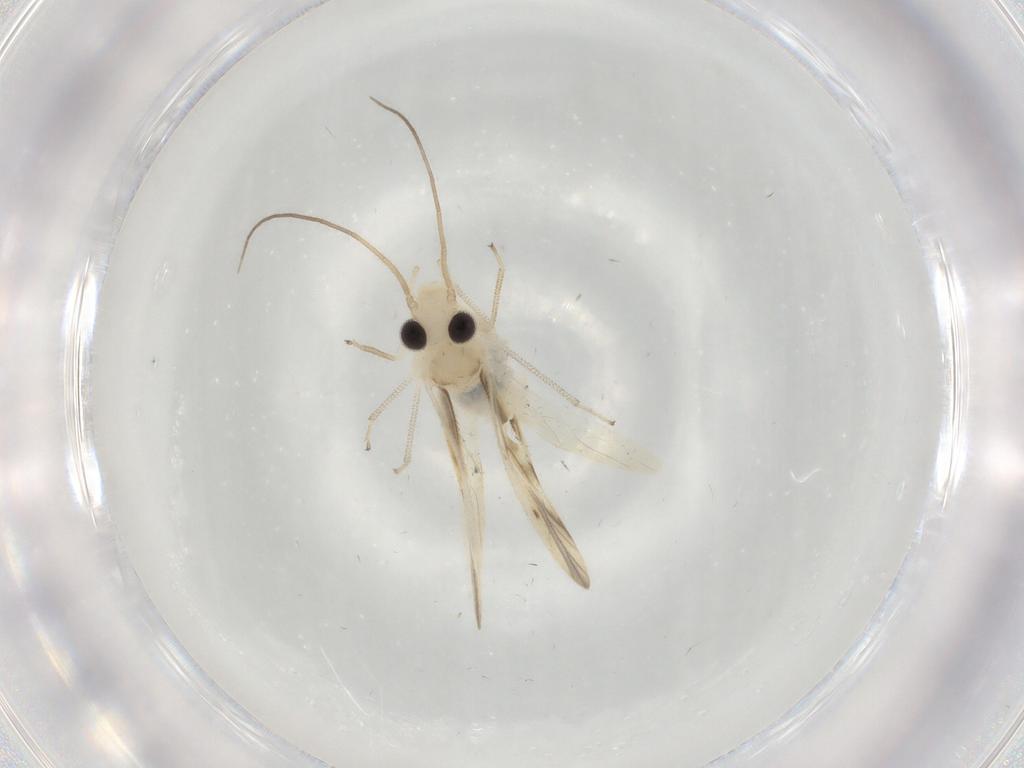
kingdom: Animalia
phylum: Arthropoda
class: Insecta
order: Psocodea
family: Caeciliusidae
